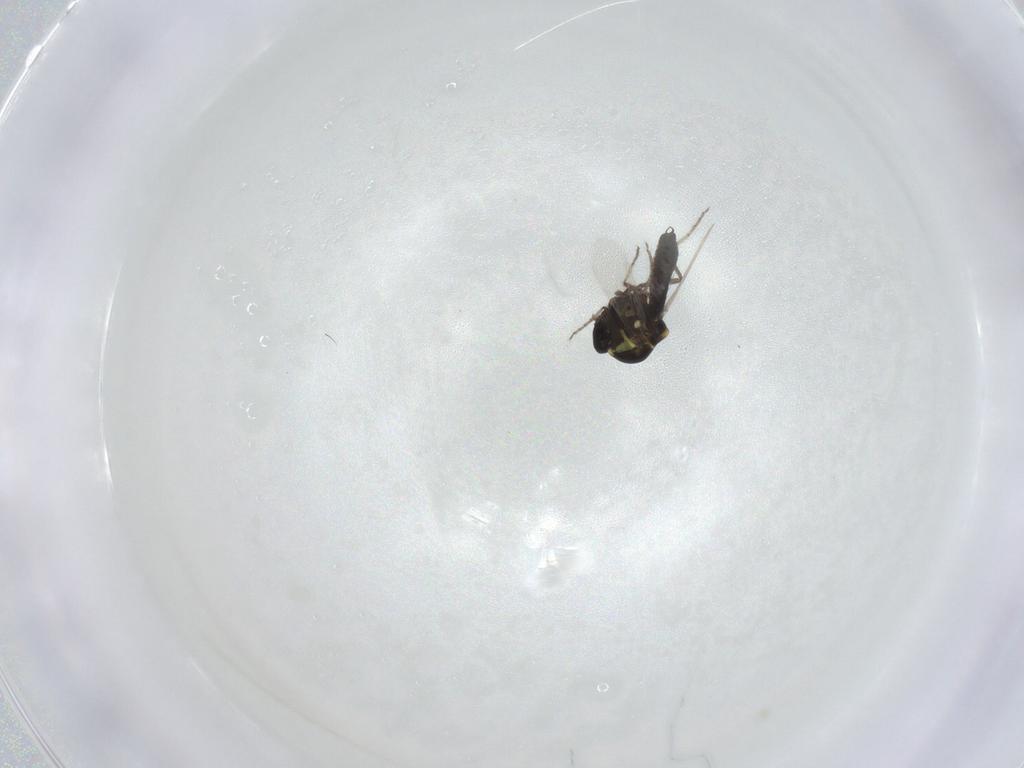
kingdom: Animalia
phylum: Arthropoda
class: Insecta
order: Diptera
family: Ceratopogonidae
